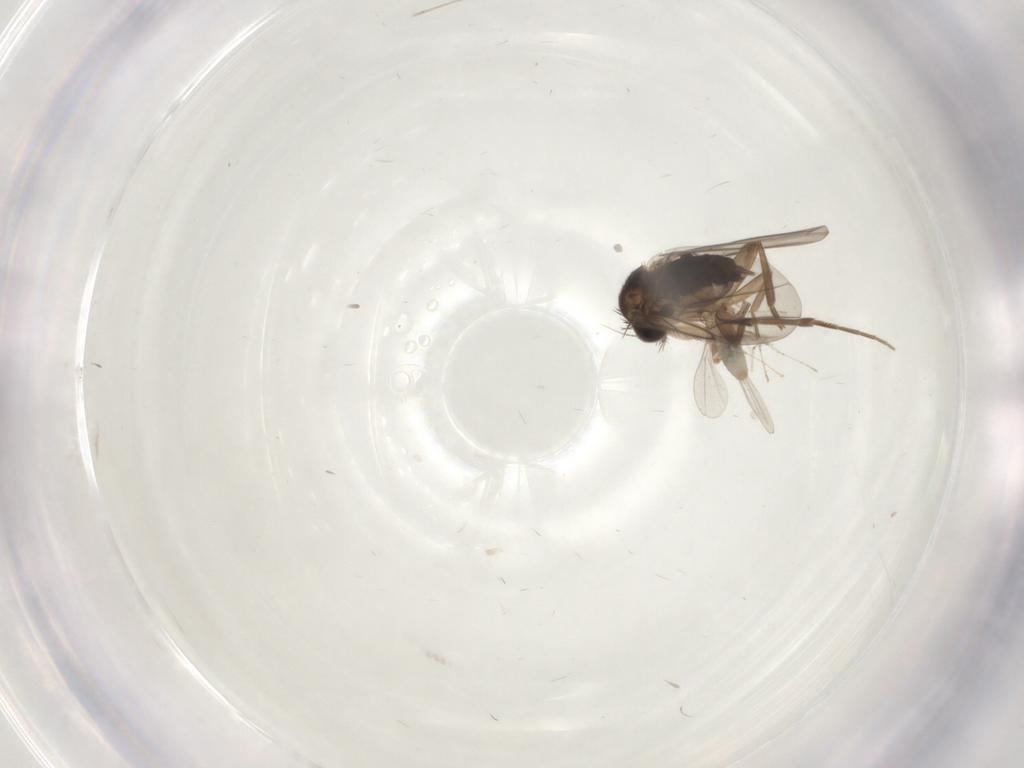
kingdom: Animalia
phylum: Arthropoda
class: Insecta
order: Diptera
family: Cecidomyiidae
